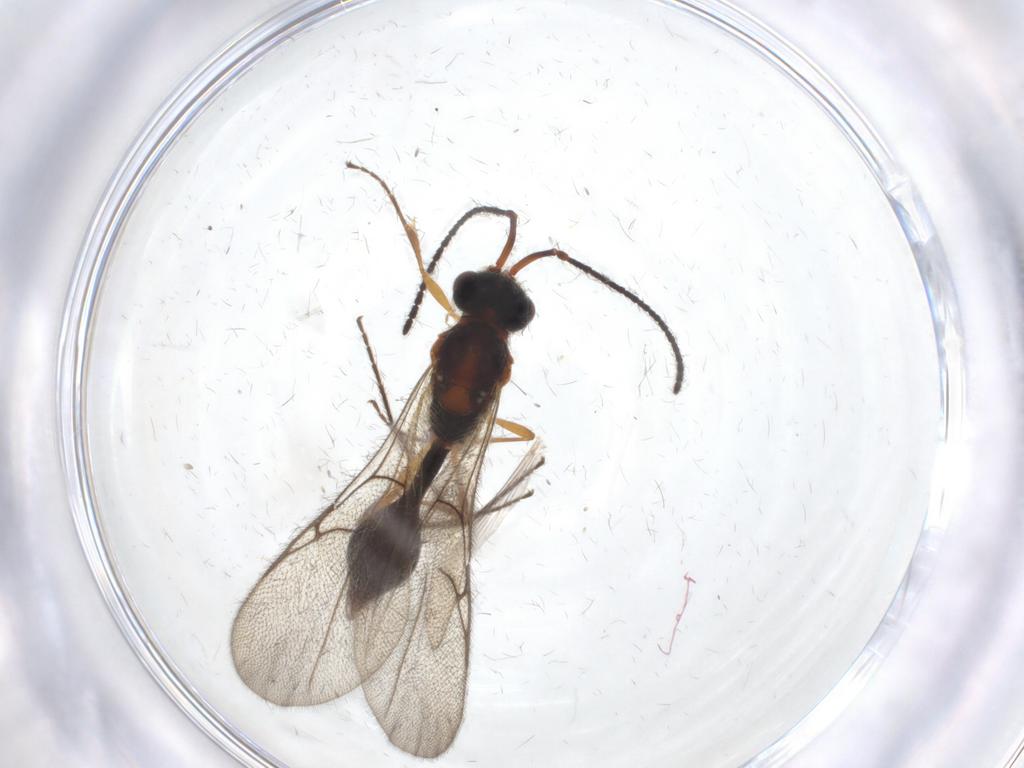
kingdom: Animalia
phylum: Arthropoda
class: Insecta
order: Hymenoptera
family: Diapriidae
